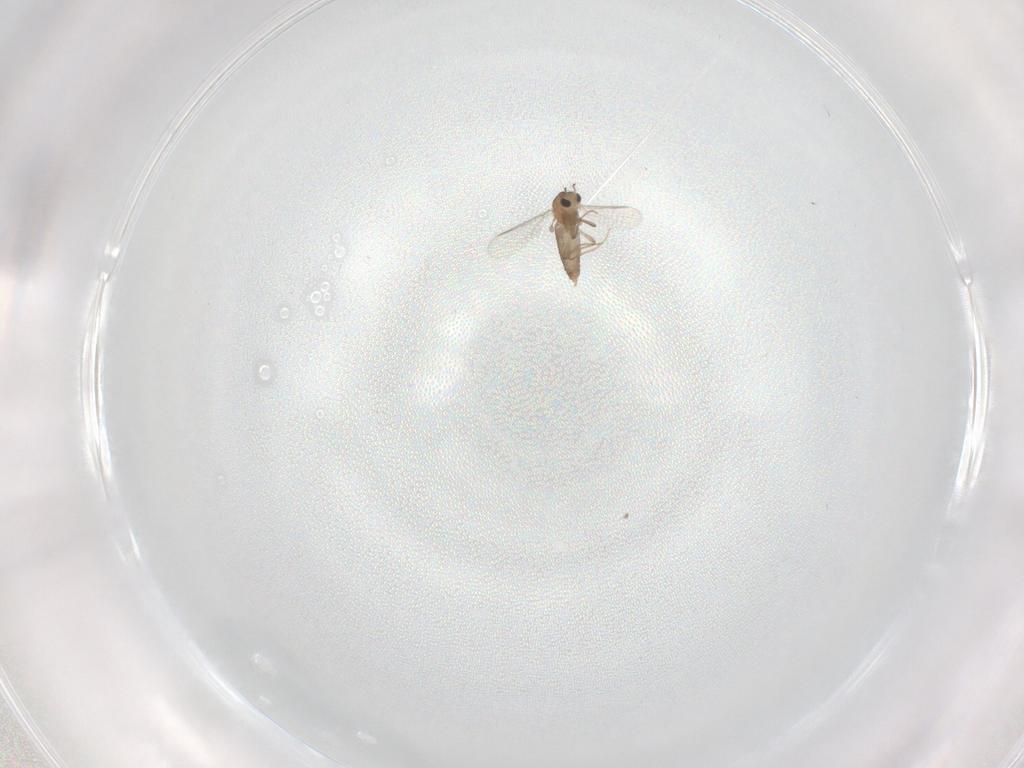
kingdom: Animalia
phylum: Arthropoda
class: Insecta
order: Diptera
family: Chironomidae
